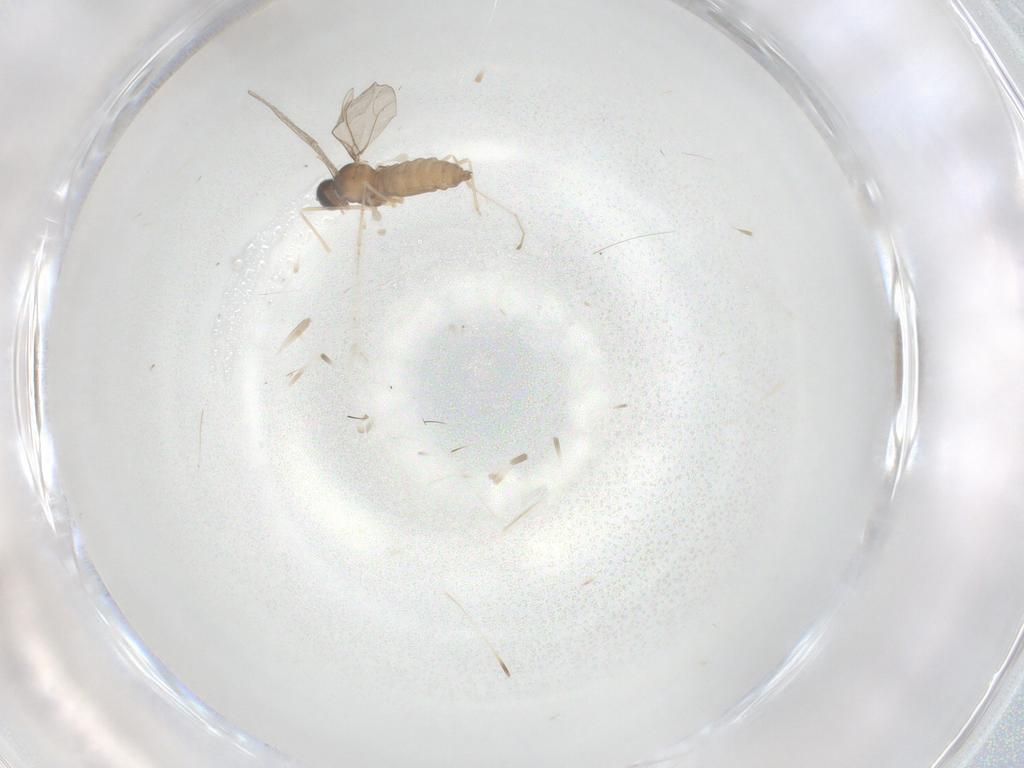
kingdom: Animalia
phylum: Arthropoda
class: Insecta
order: Diptera
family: Cecidomyiidae
